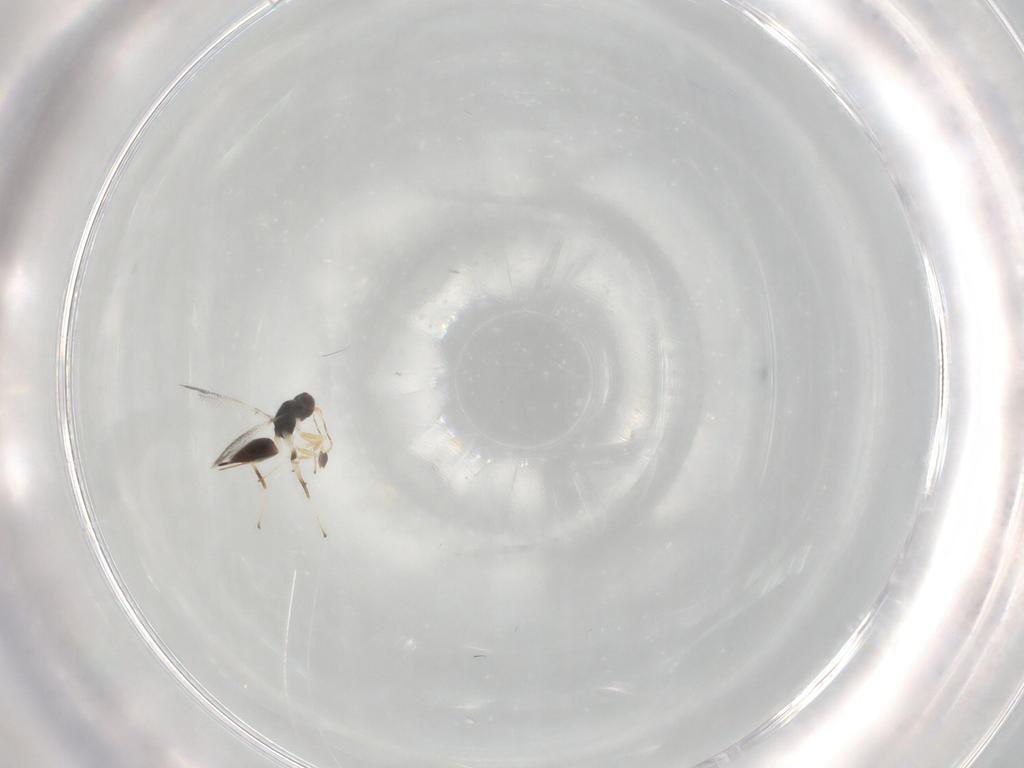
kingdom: Animalia
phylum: Arthropoda
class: Insecta
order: Hymenoptera
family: Mymaridae
